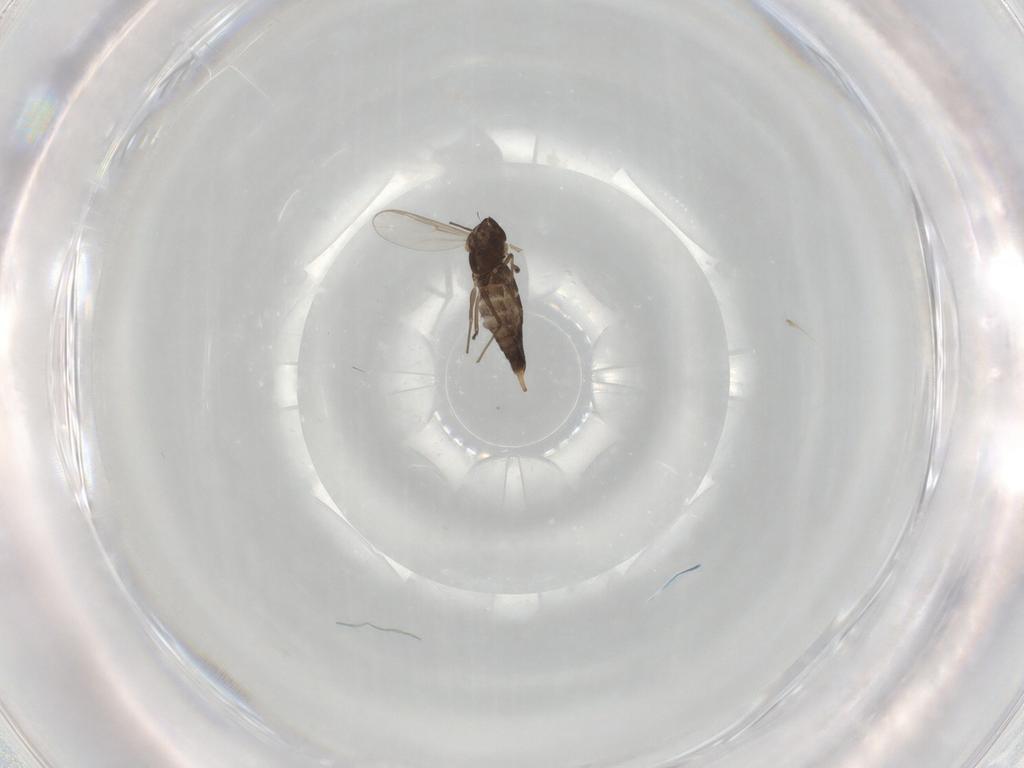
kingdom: Animalia
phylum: Arthropoda
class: Insecta
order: Diptera
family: Chironomidae
